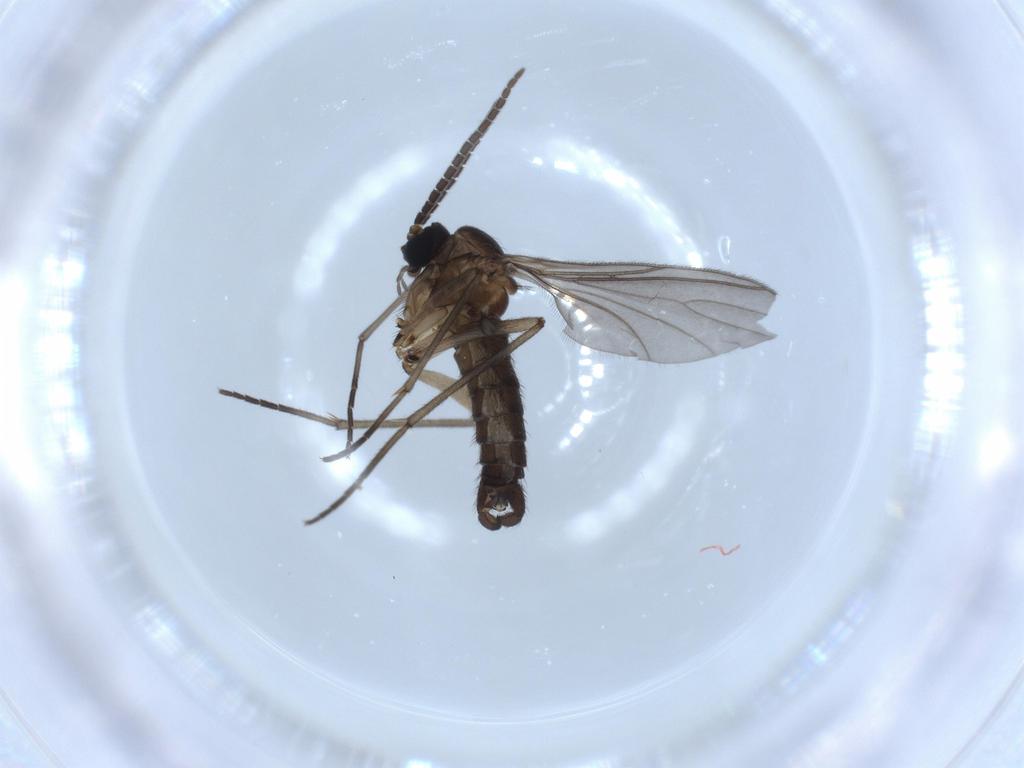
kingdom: Animalia
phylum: Arthropoda
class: Insecta
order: Diptera
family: Sciaridae
